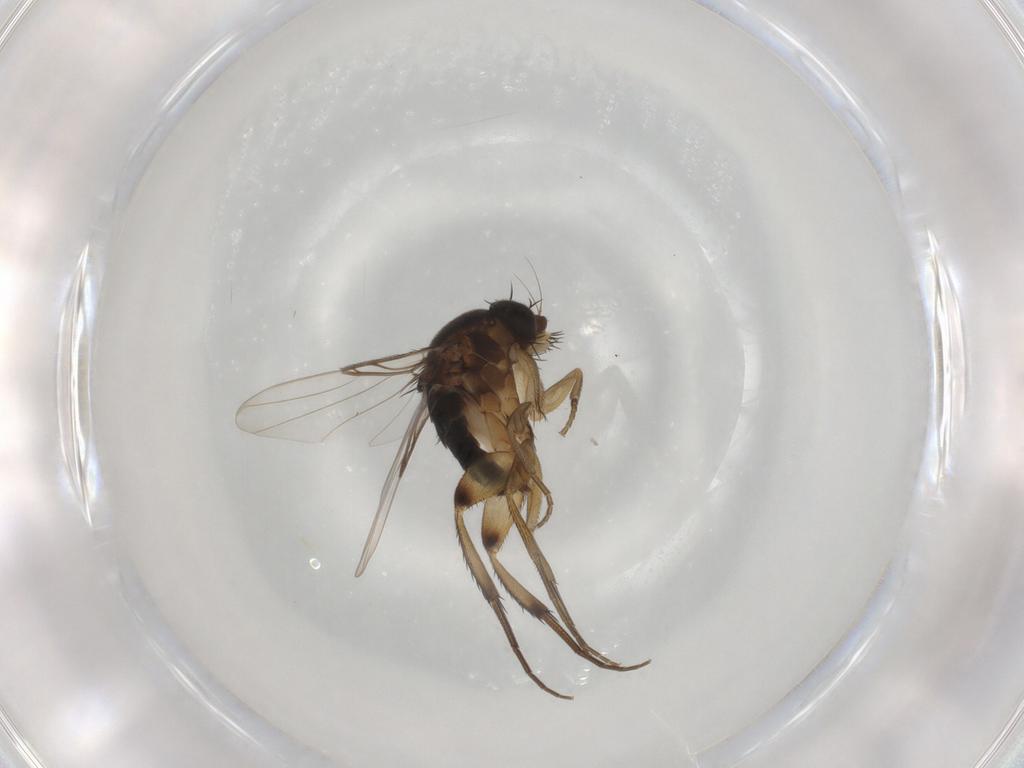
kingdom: Animalia
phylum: Arthropoda
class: Insecta
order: Diptera
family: Phoridae
